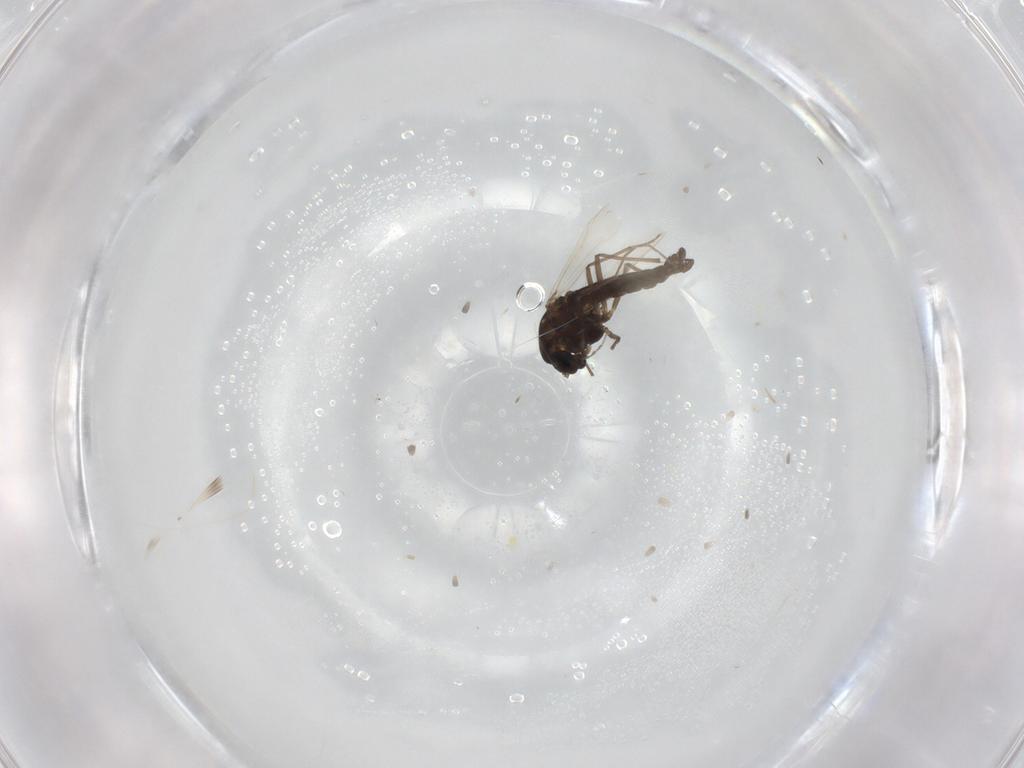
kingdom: Animalia
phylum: Arthropoda
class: Insecta
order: Diptera
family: Chironomidae
